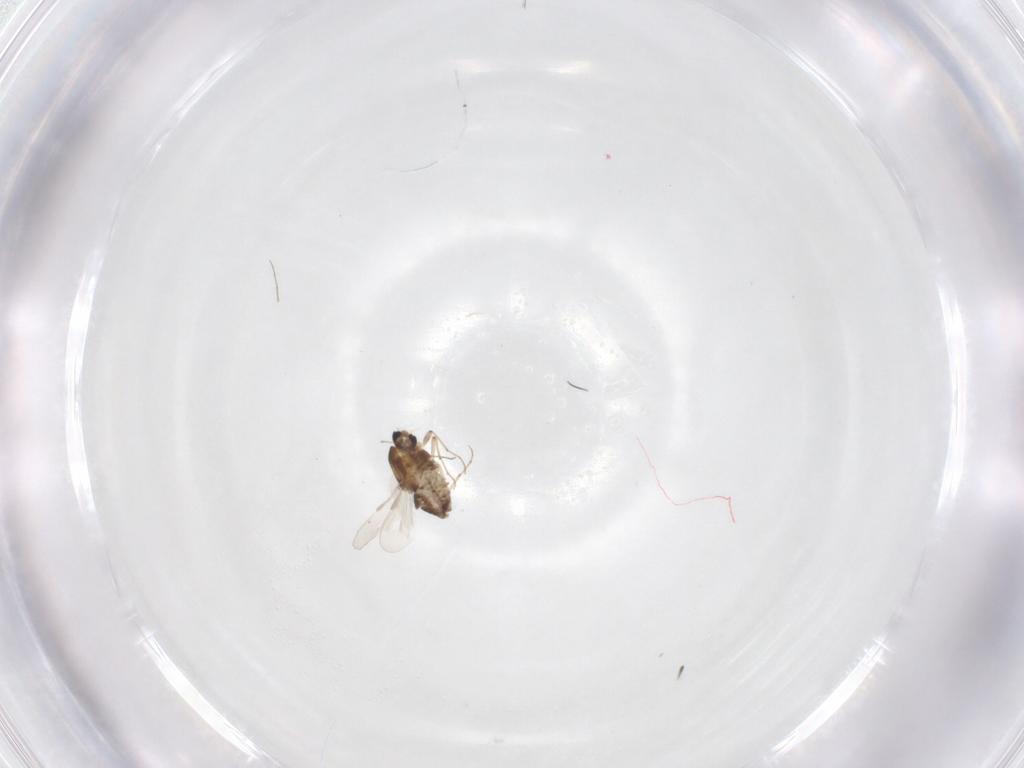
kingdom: Animalia
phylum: Arthropoda
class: Insecta
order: Diptera
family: Chironomidae
